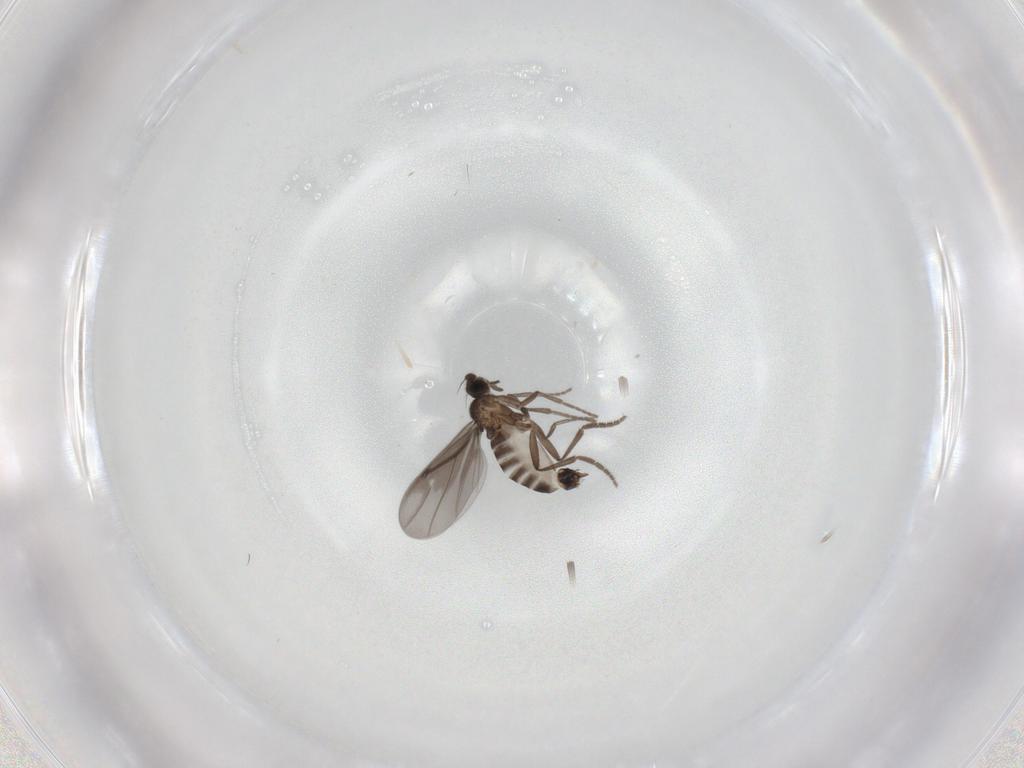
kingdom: Animalia
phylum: Arthropoda
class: Insecta
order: Diptera
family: Phoridae
